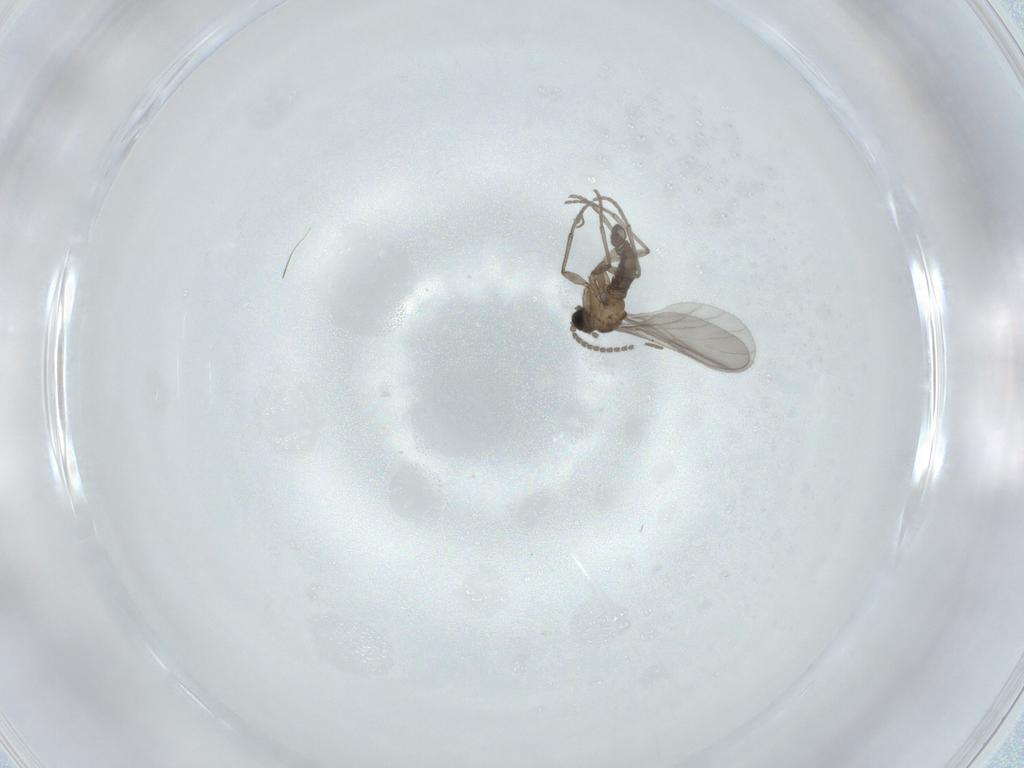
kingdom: Animalia
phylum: Arthropoda
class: Insecta
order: Diptera
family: Sciaridae
